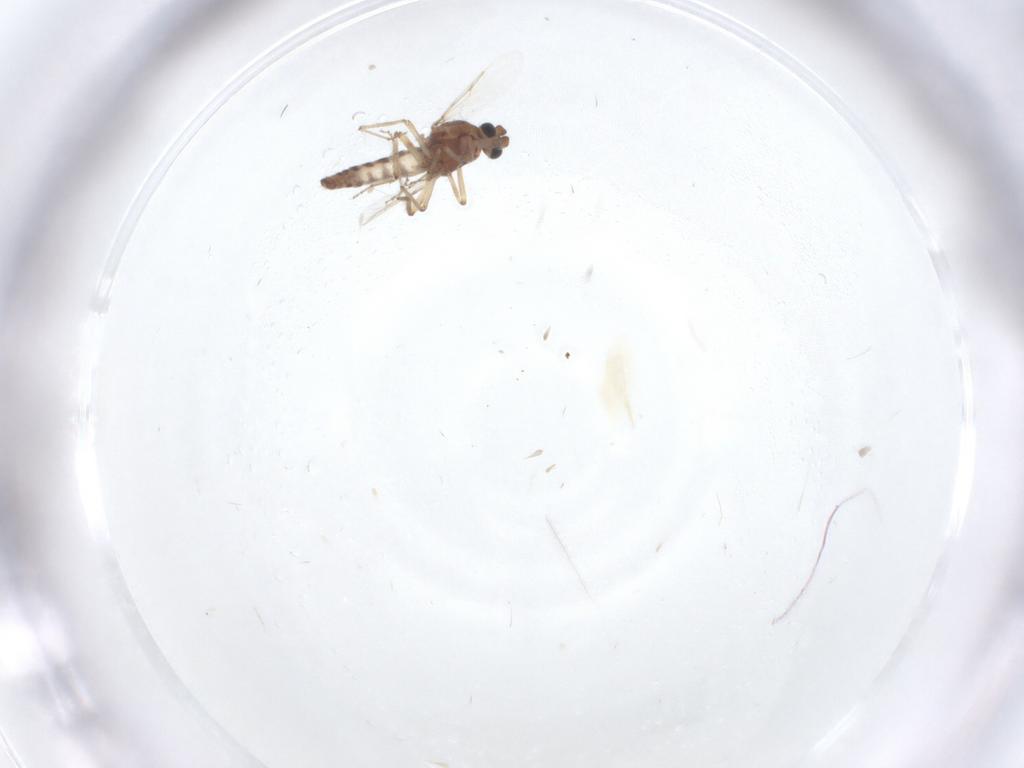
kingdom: Animalia
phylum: Arthropoda
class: Insecta
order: Diptera
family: Ceratopogonidae
